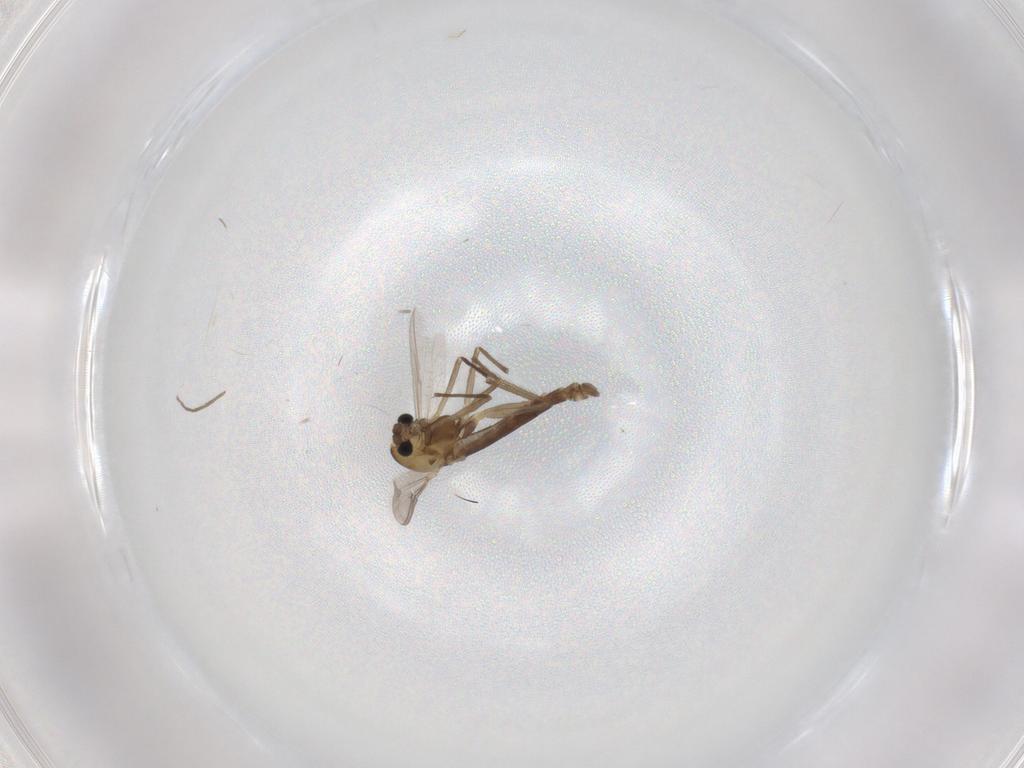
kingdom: Animalia
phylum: Arthropoda
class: Insecta
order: Diptera
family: Chironomidae
